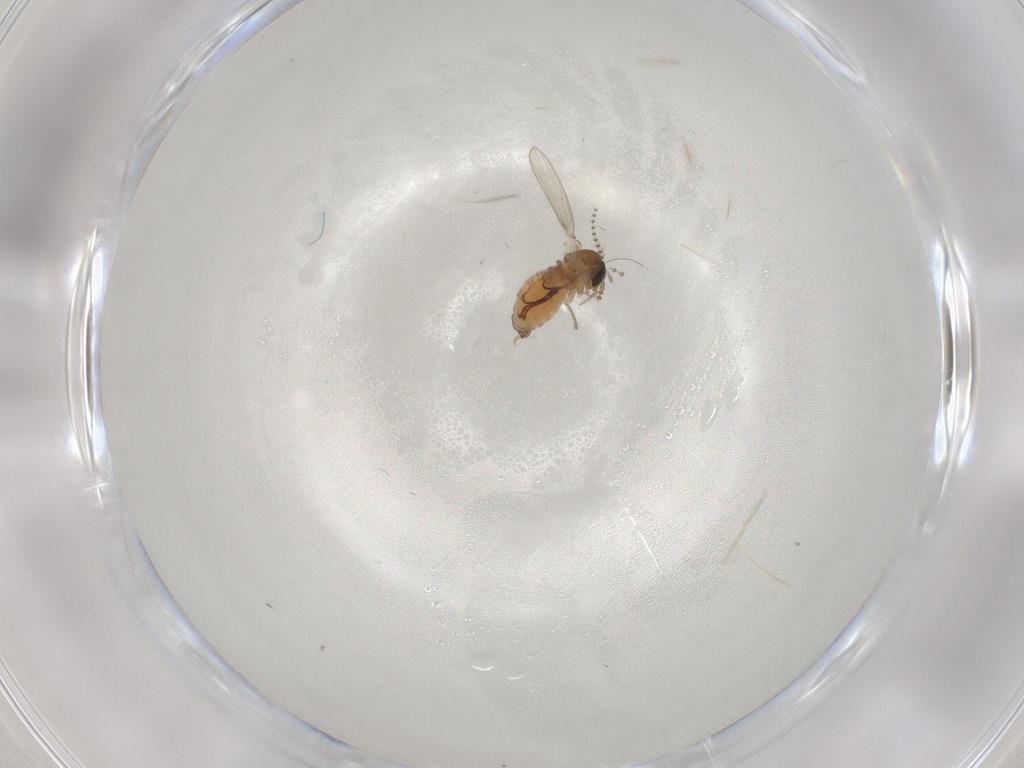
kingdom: Animalia
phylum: Arthropoda
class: Insecta
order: Diptera
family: Psychodidae
